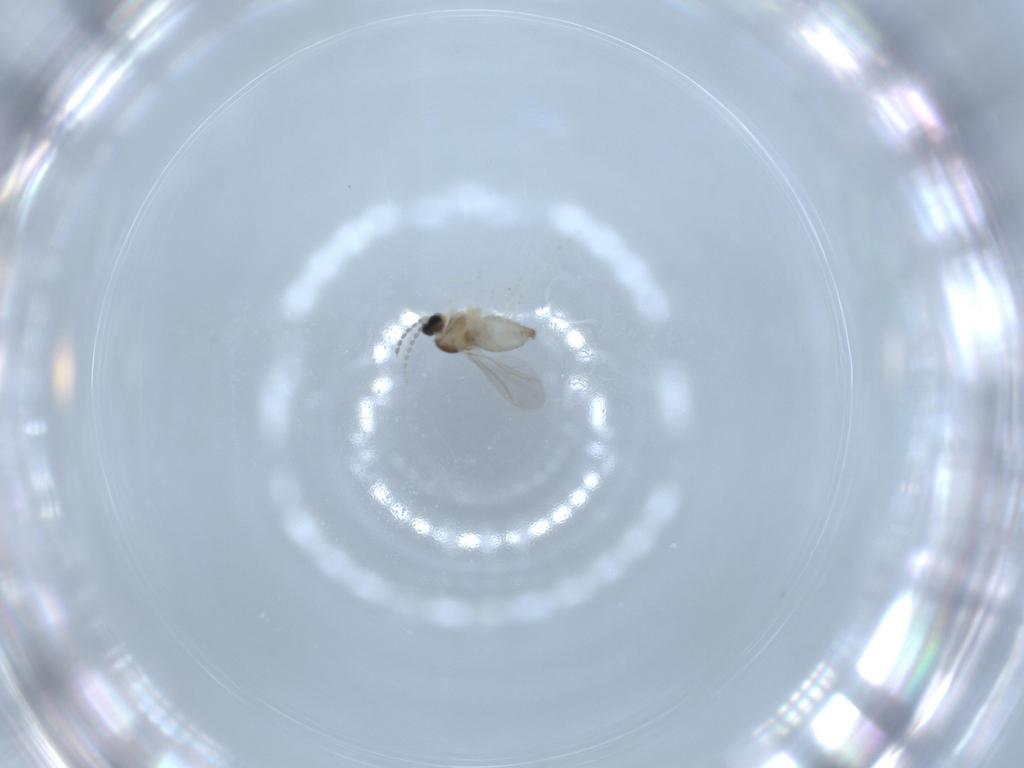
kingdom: Animalia
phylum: Arthropoda
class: Insecta
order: Diptera
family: Cecidomyiidae
